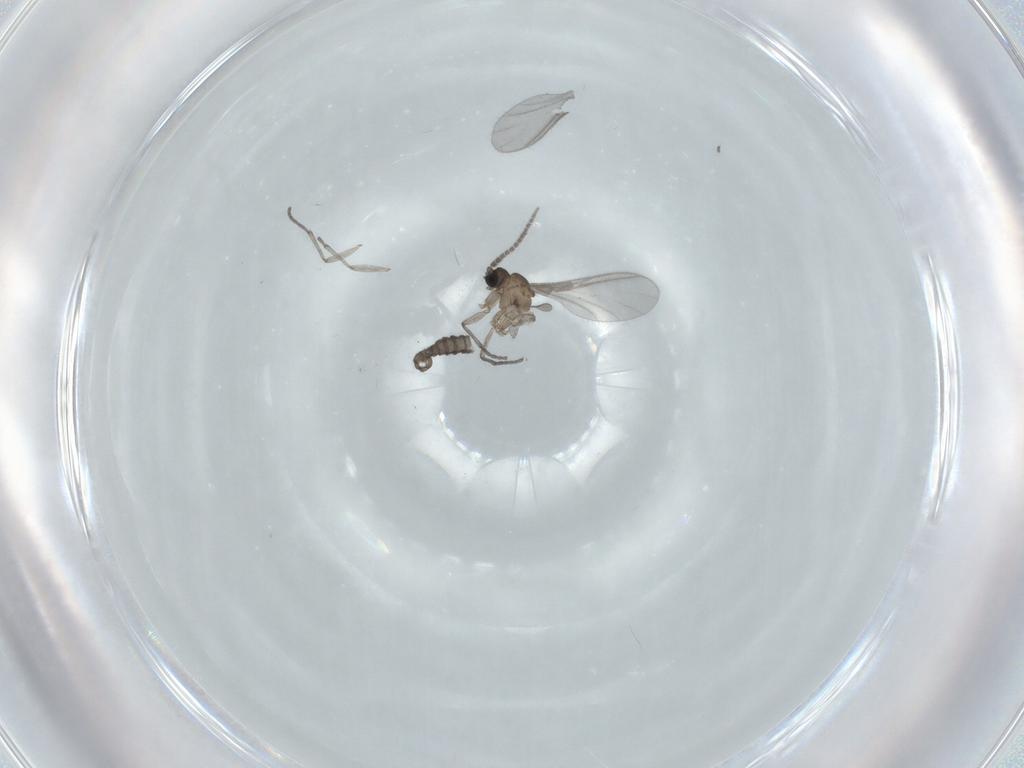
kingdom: Animalia
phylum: Arthropoda
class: Insecta
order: Diptera
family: Sciaridae
